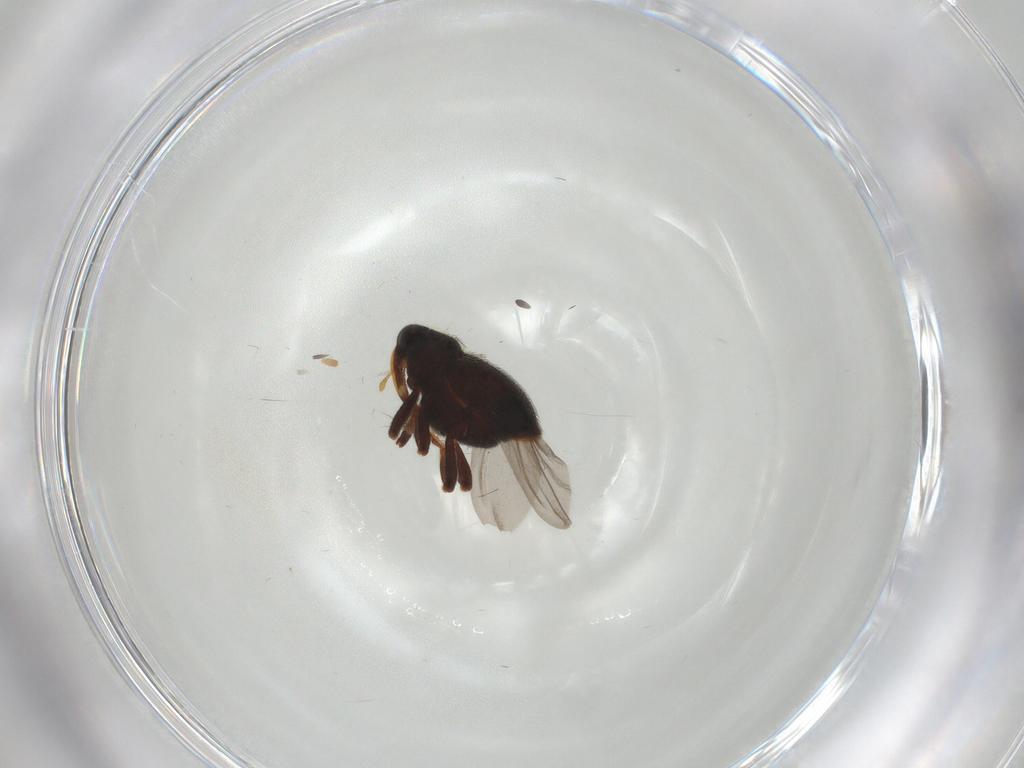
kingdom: Animalia
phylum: Arthropoda
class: Insecta
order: Coleoptera
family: Curculionidae
